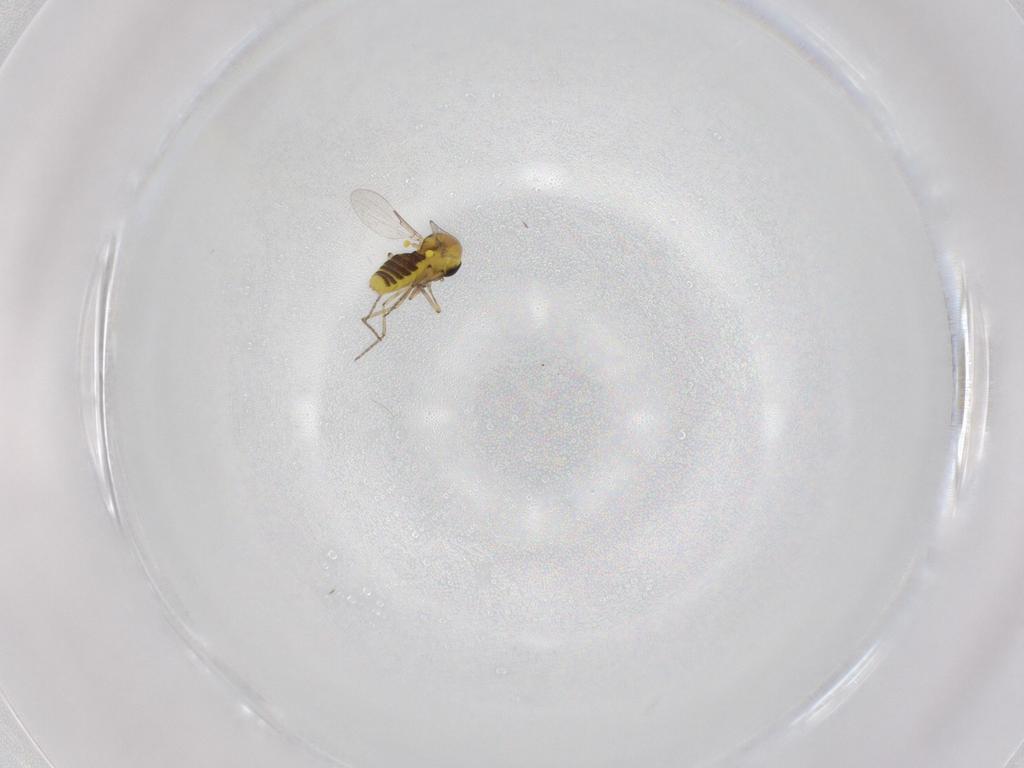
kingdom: Animalia
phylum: Arthropoda
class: Insecta
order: Diptera
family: Ceratopogonidae
